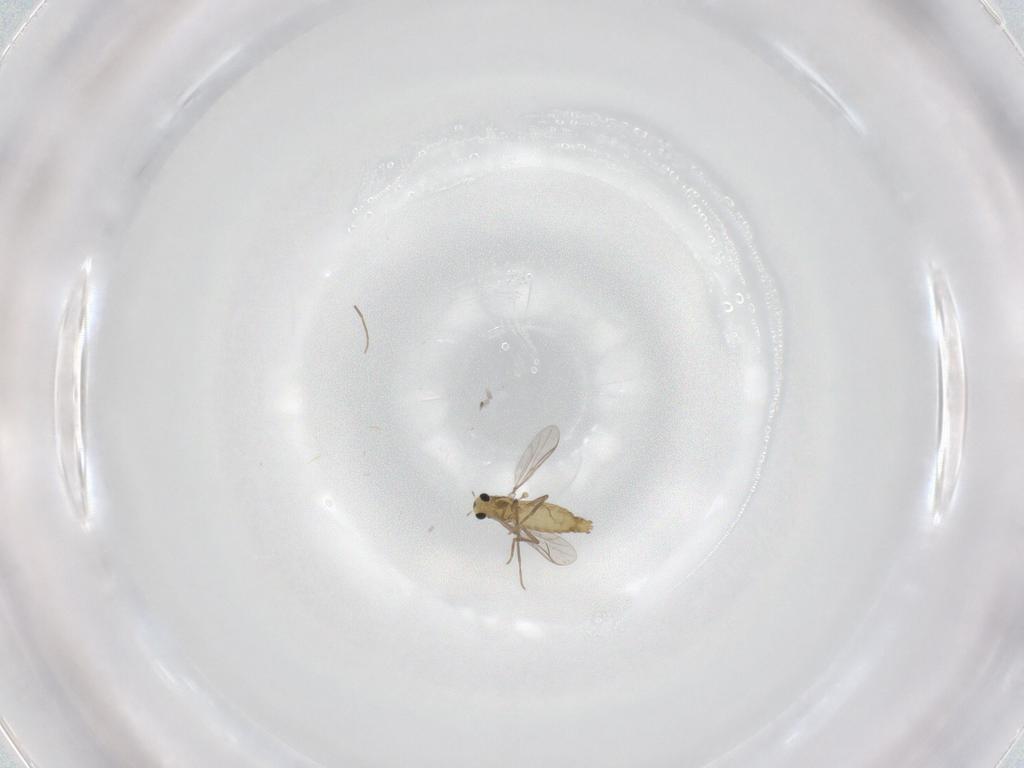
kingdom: Animalia
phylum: Arthropoda
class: Insecta
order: Diptera
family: Chironomidae
